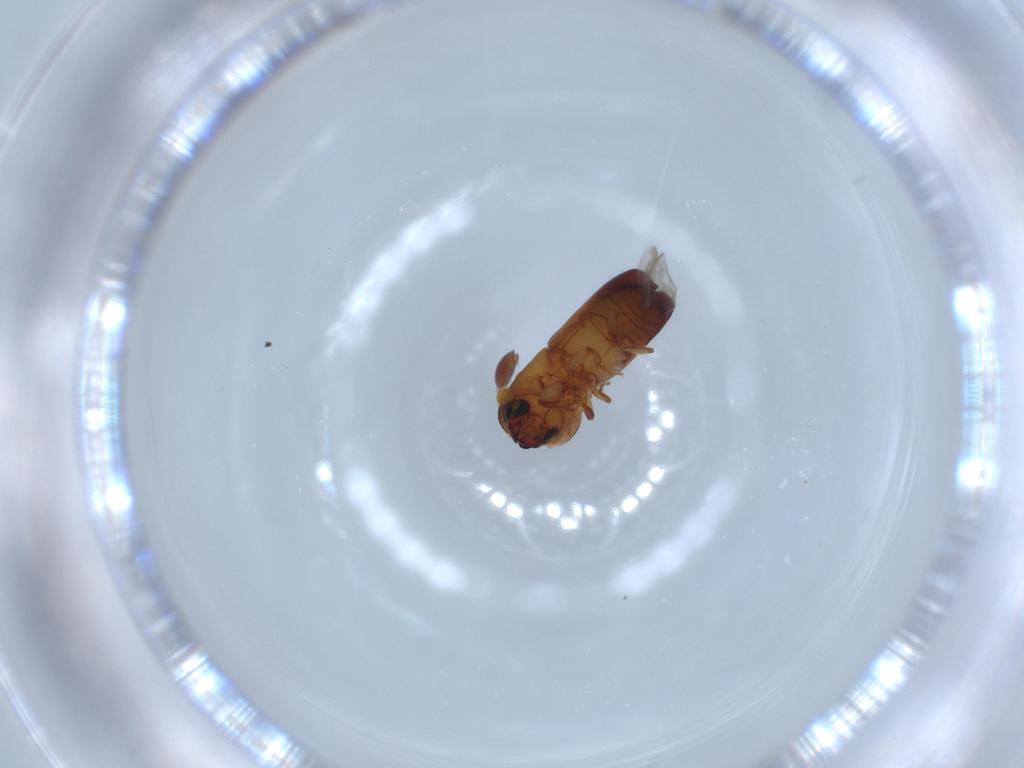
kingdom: Animalia
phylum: Arthropoda
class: Insecta
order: Coleoptera
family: Curculionidae
